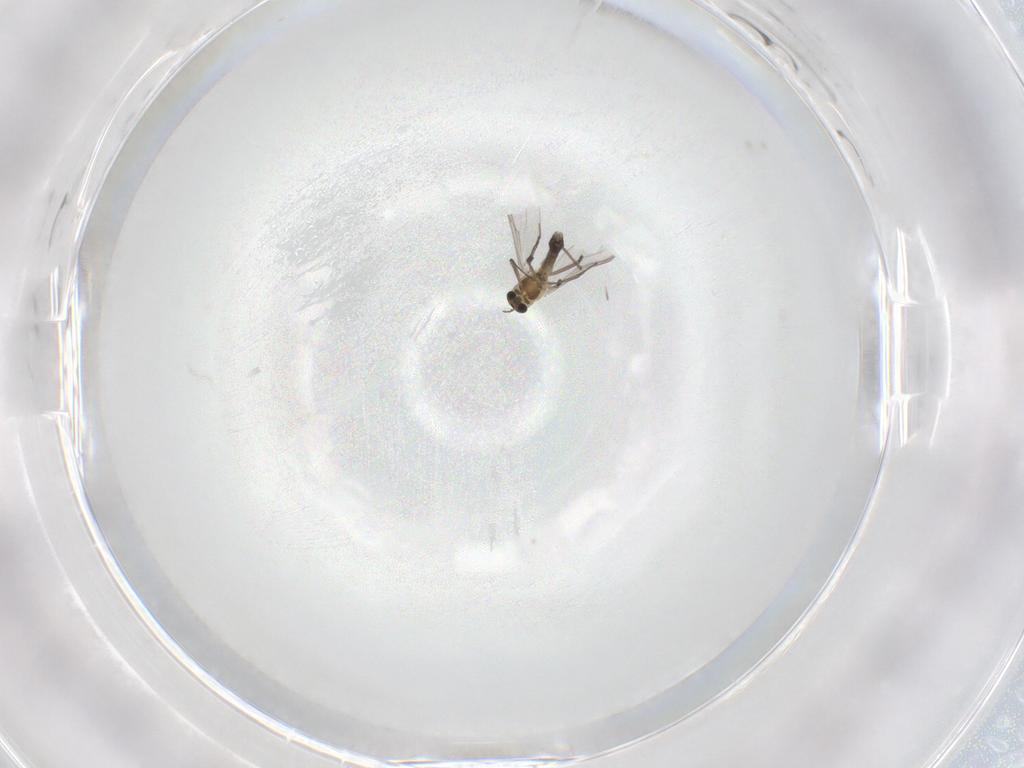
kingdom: Animalia
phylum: Arthropoda
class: Insecta
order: Diptera
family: Chironomidae
